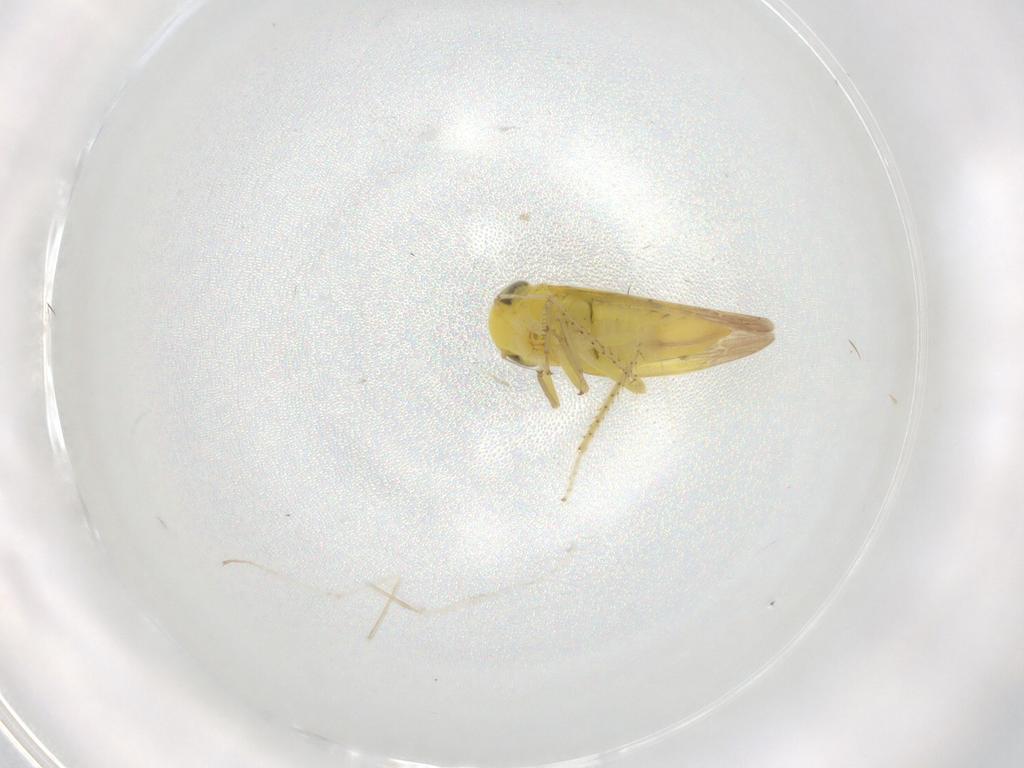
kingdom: Animalia
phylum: Arthropoda
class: Insecta
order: Hemiptera
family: Cicadellidae
